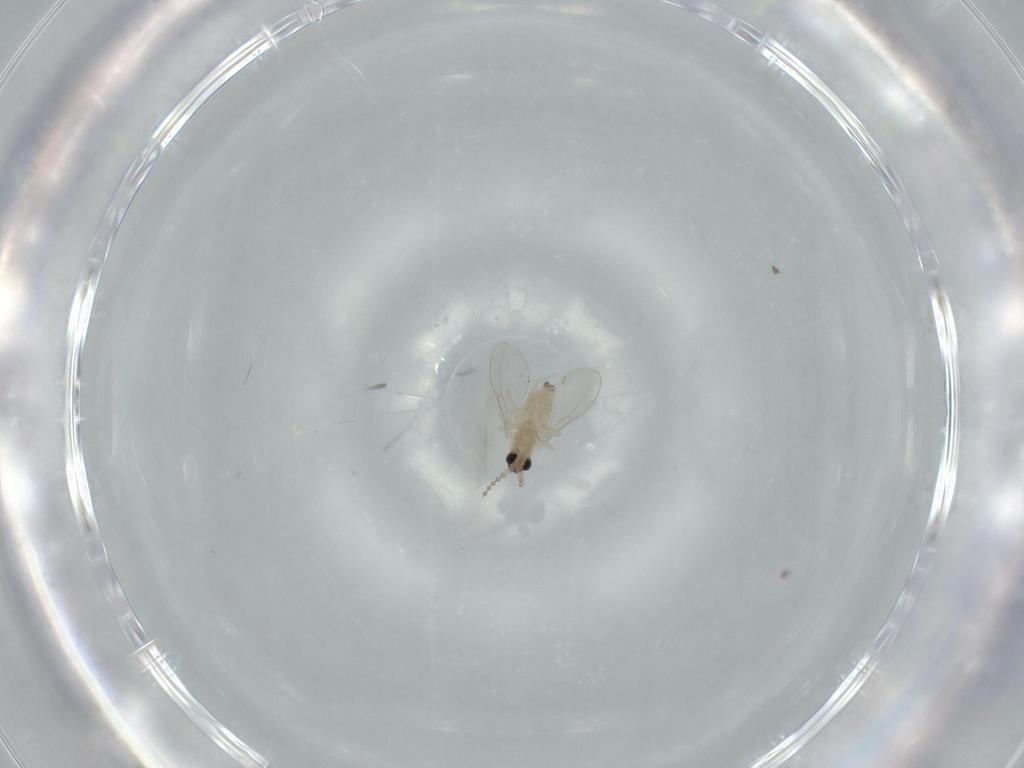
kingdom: Animalia
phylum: Arthropoda
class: Insecta
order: Diptera
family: Cecidomyiidae
